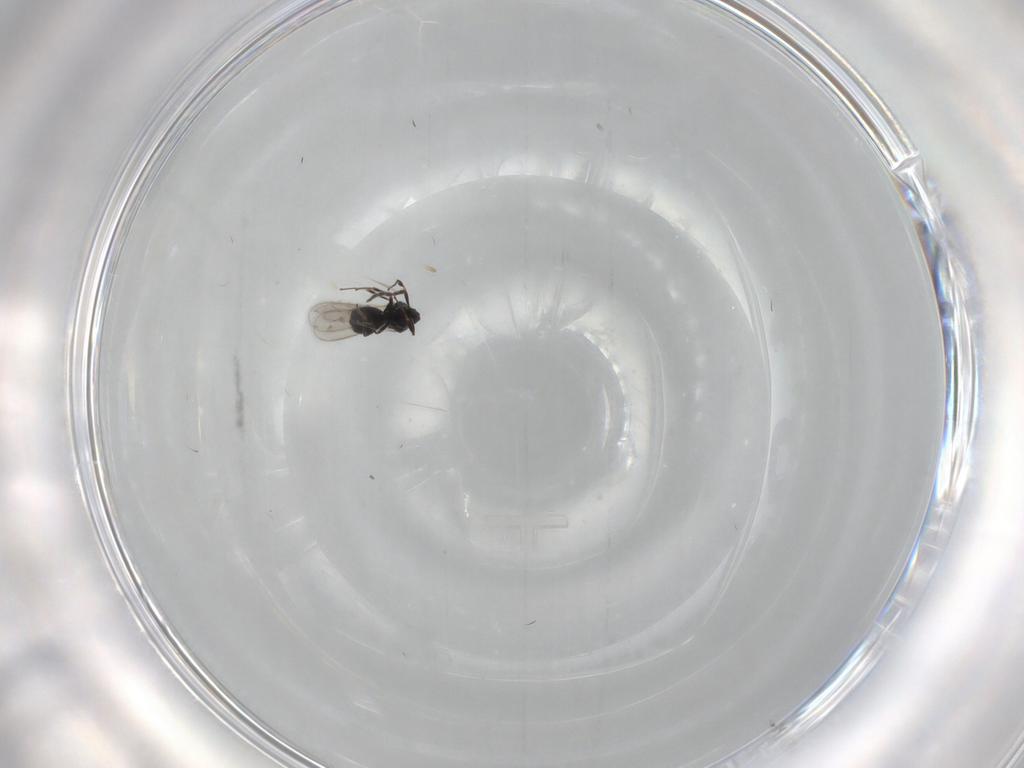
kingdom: Animalia
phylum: Arthropoda
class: Insecta
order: Hymenoptera
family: Scelionidae
